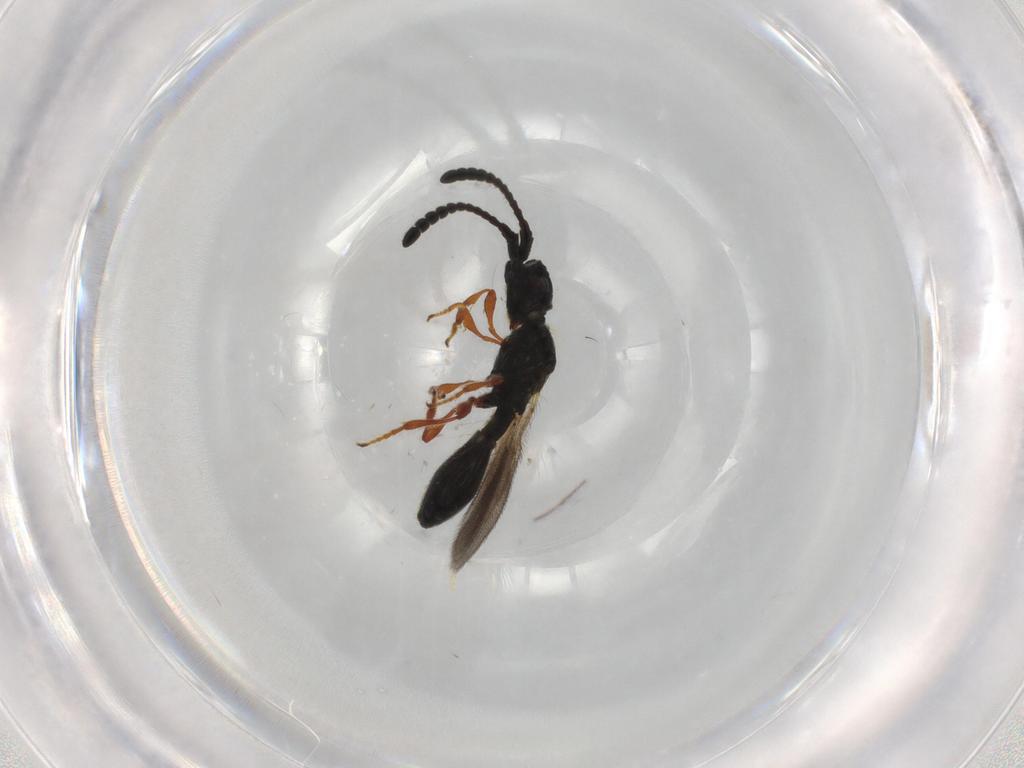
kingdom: Animalia
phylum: Arthropoda
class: Insecta
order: Hymenoptera
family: Diapriidae
